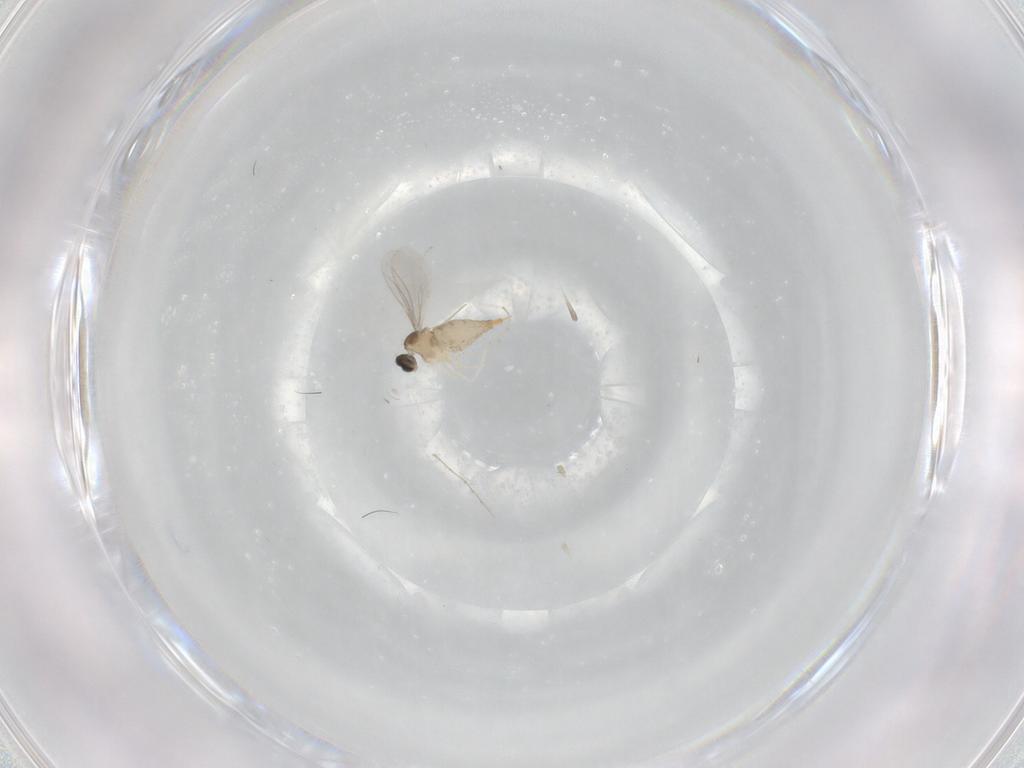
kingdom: Animalia
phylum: Arthropoda
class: Insecta
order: Diptera
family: Cecidomyiidae
